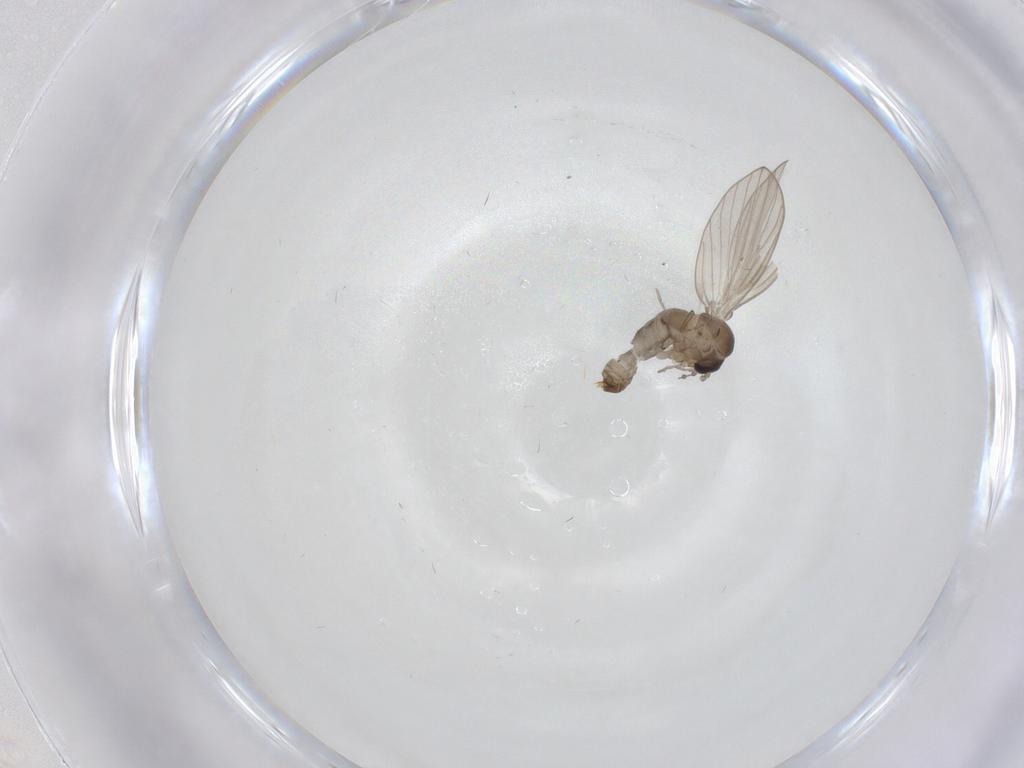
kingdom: Animalia
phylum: Arthropoda
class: Insecta
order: Diptera
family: Psychodidae
